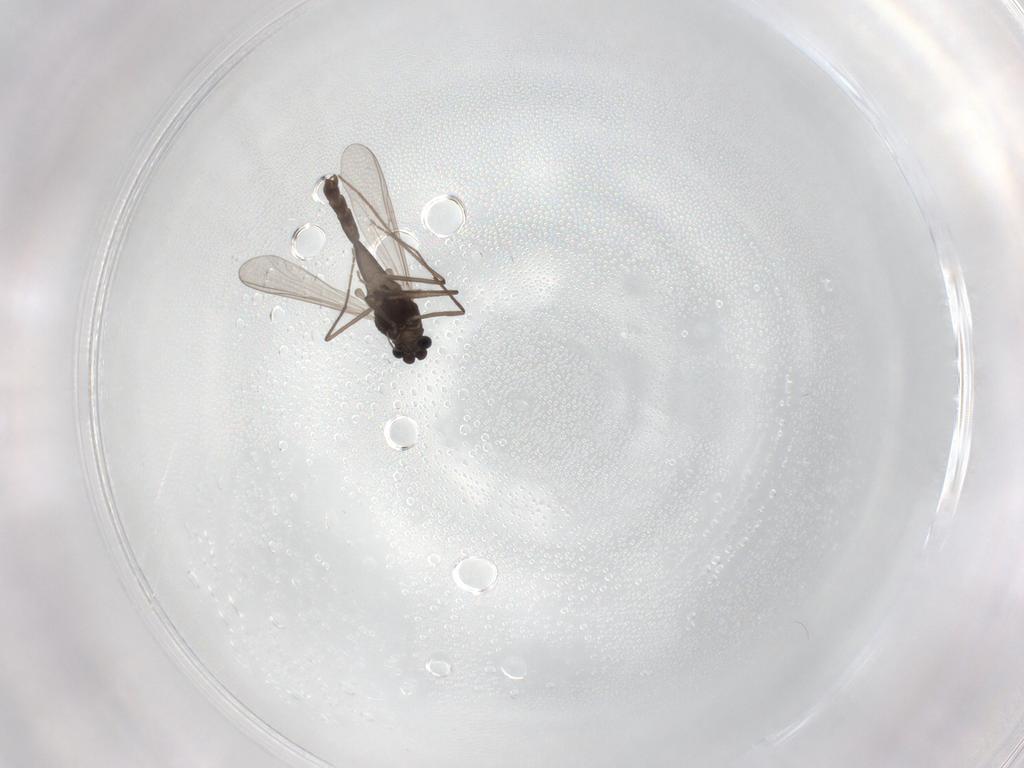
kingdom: Animalia
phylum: Arthropoda
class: Insecta
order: Diptera
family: Chironomidae
